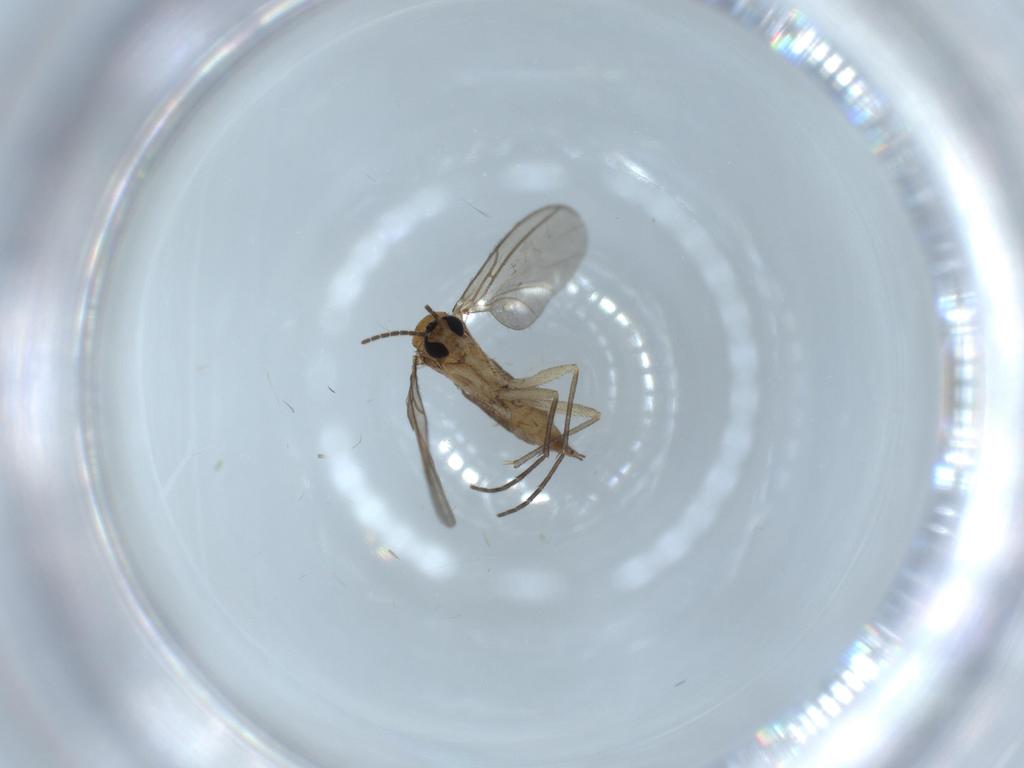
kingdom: Animalia
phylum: Arthropoda
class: Insecta
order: Diptera
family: Sciaridae
